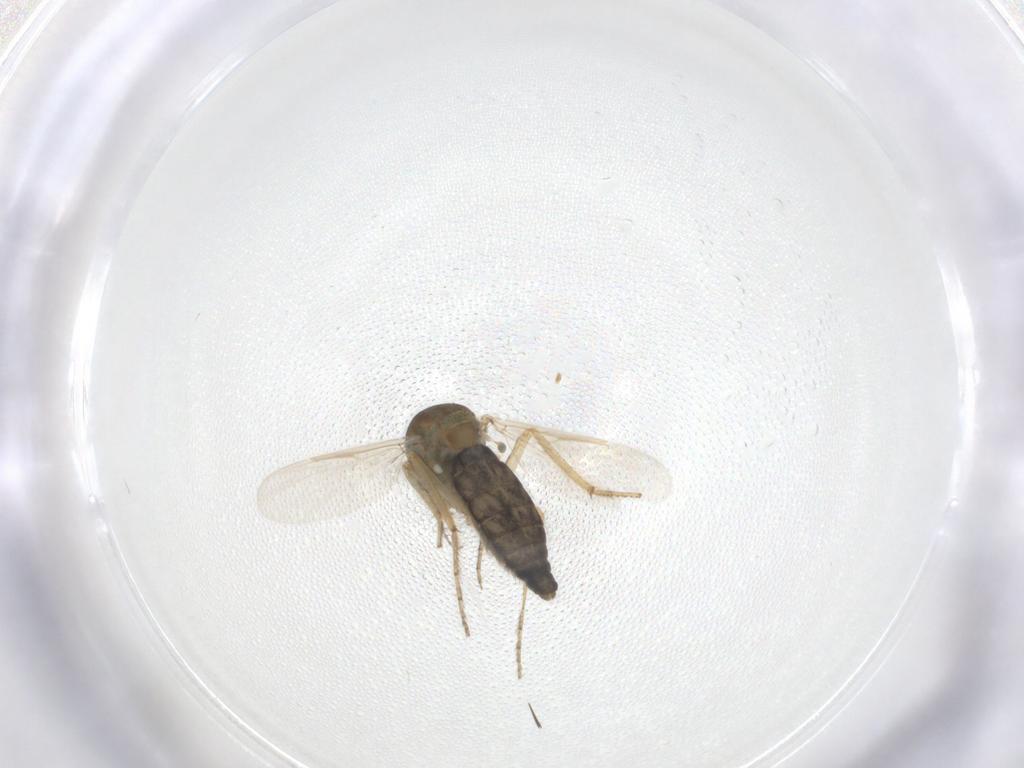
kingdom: Animalia
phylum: Arthropoda
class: Insecta
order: Diptera
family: Ceratopogonidae
